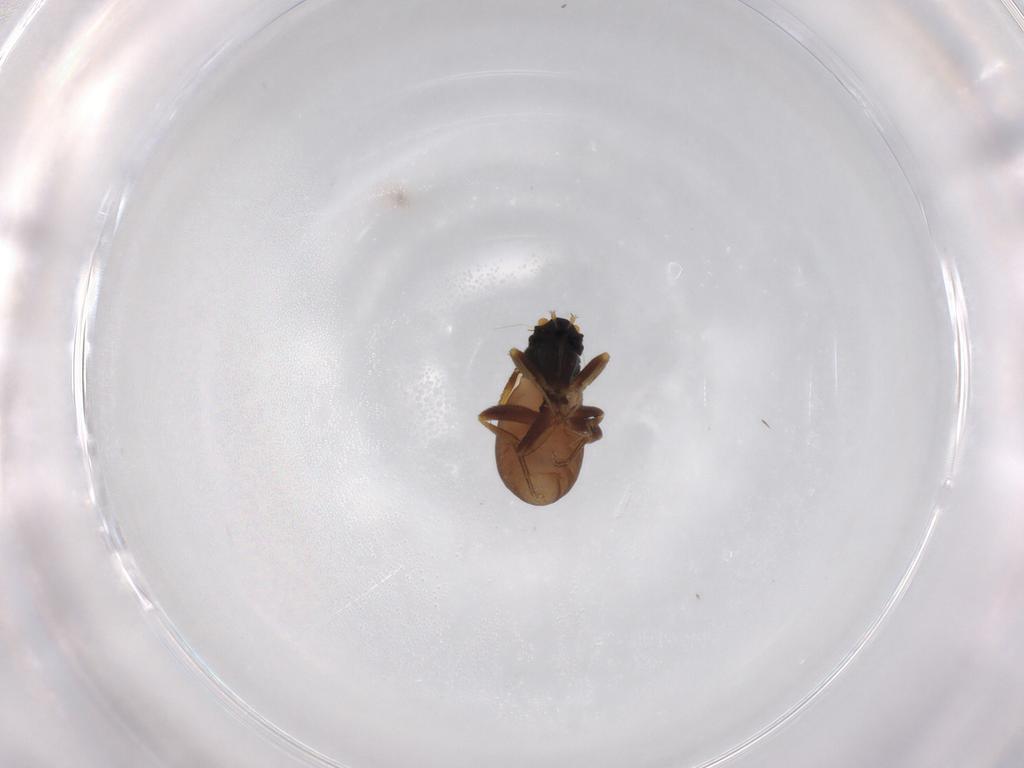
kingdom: Animalia
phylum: Arthropoda
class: Insecta
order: Diptera
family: Phoridae
